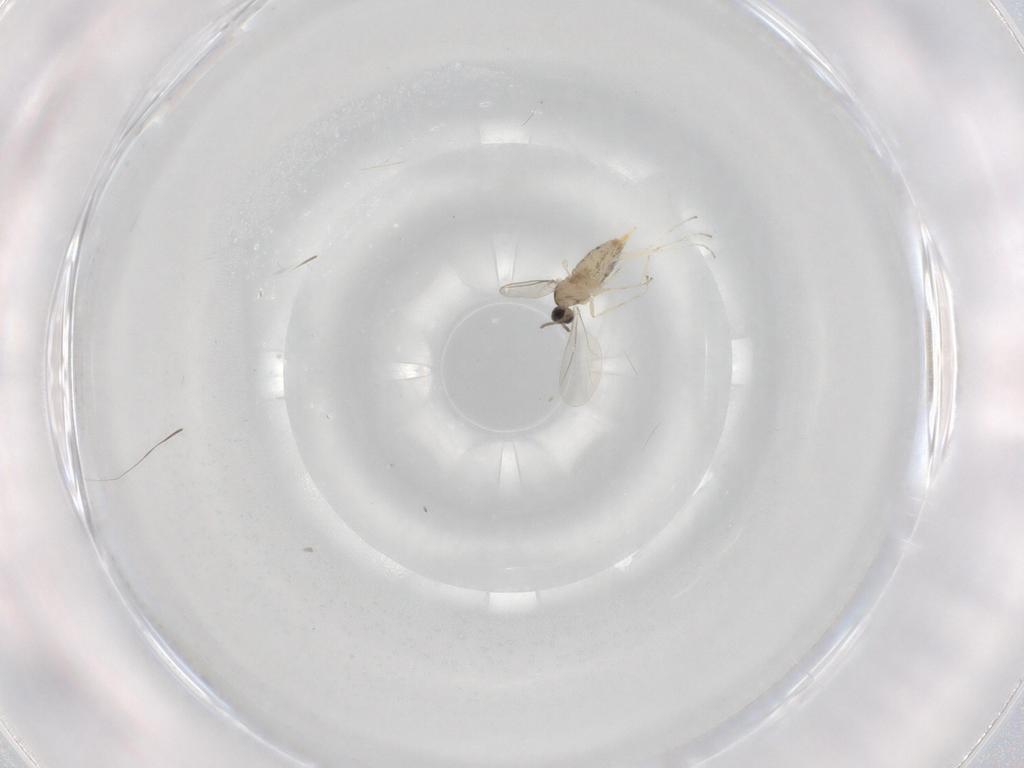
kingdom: Animalia
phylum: Arthropoda
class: Insecta
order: Diptera
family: Cecidomyiidae
